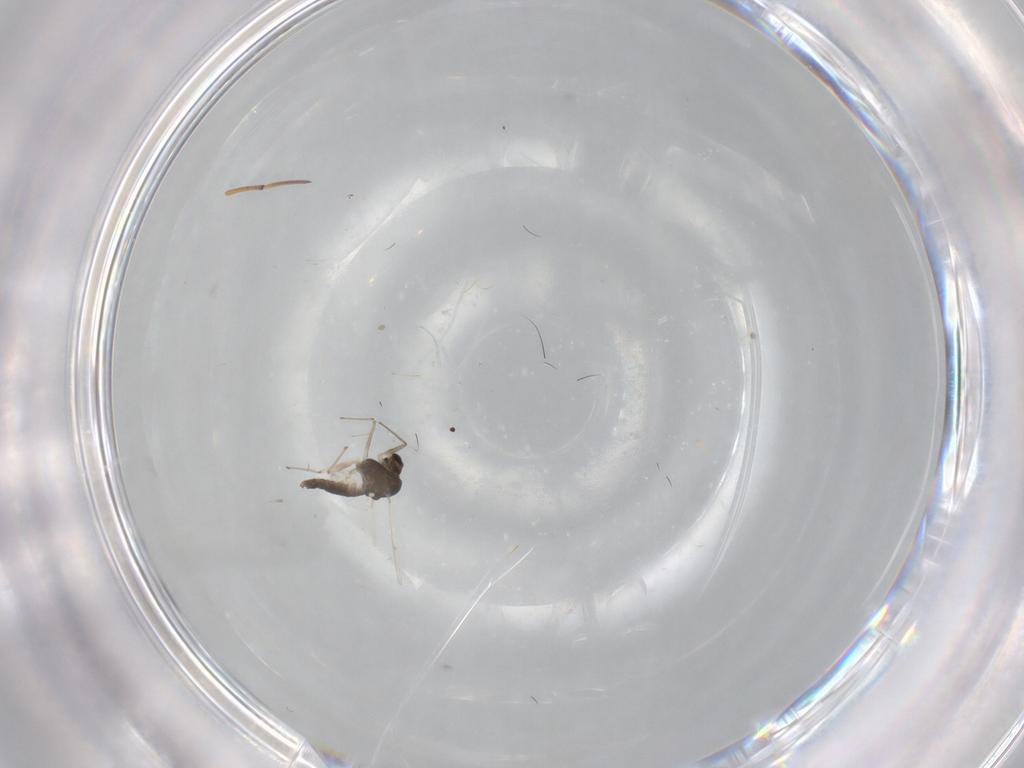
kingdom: Animalia
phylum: Arthropoda
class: Insecta
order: Diptera
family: Chironomidae
